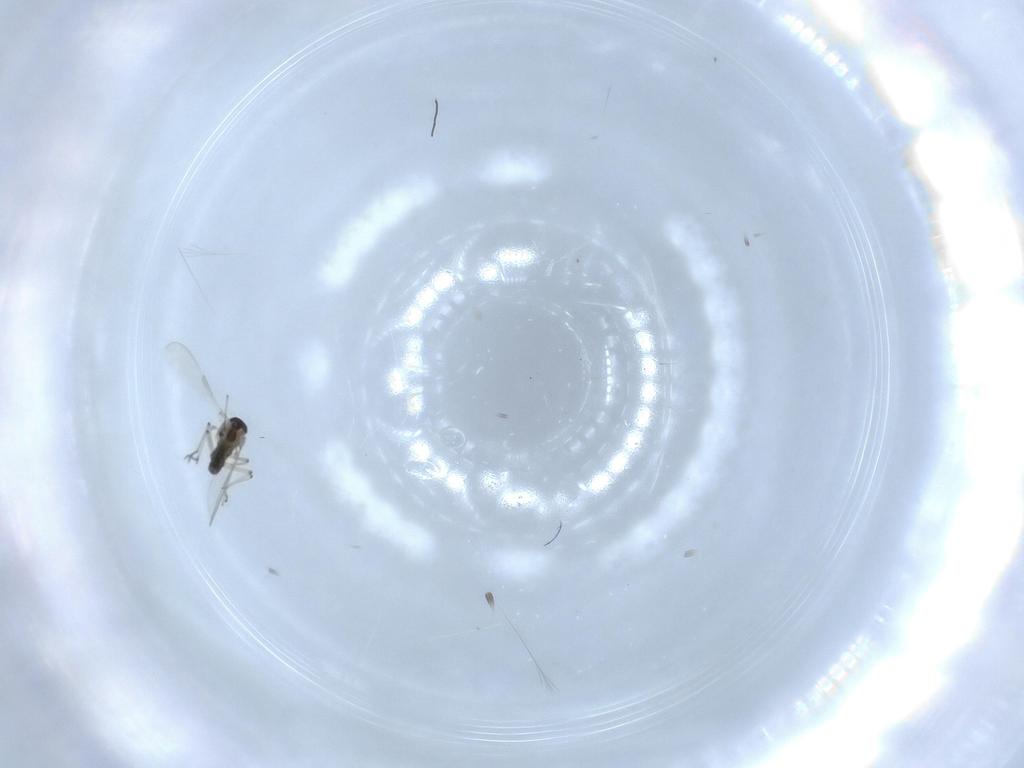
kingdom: Animalia
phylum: Arthropoda
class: Insecta
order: Diptera
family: Chironomidae
